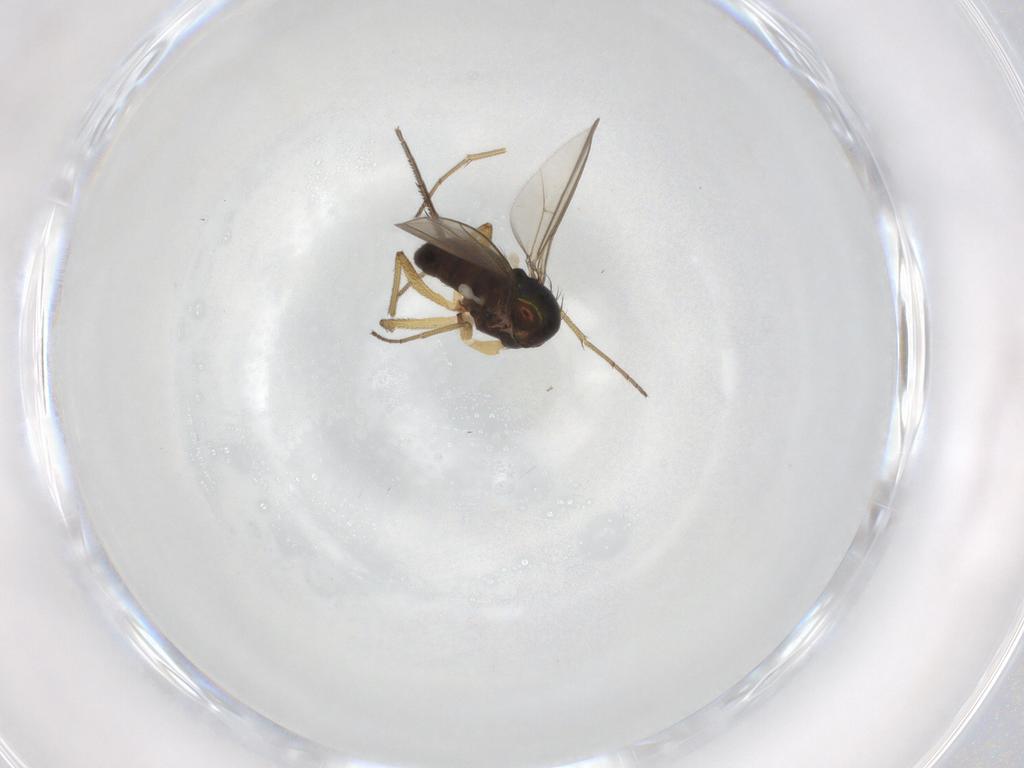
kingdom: Animalia
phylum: Arthropoda
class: Insecta
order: Diptera
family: Dolichopodidae
